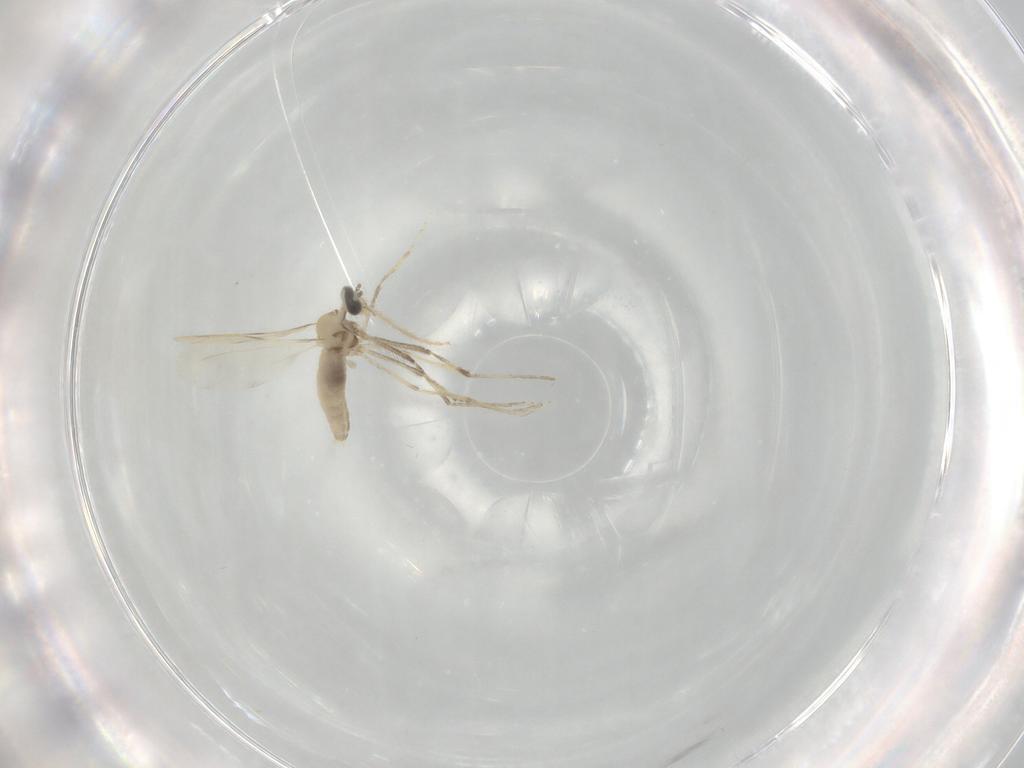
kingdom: Animalia
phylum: Arthropoda
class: Insecta
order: Diptera
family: Cecidomyiidae
